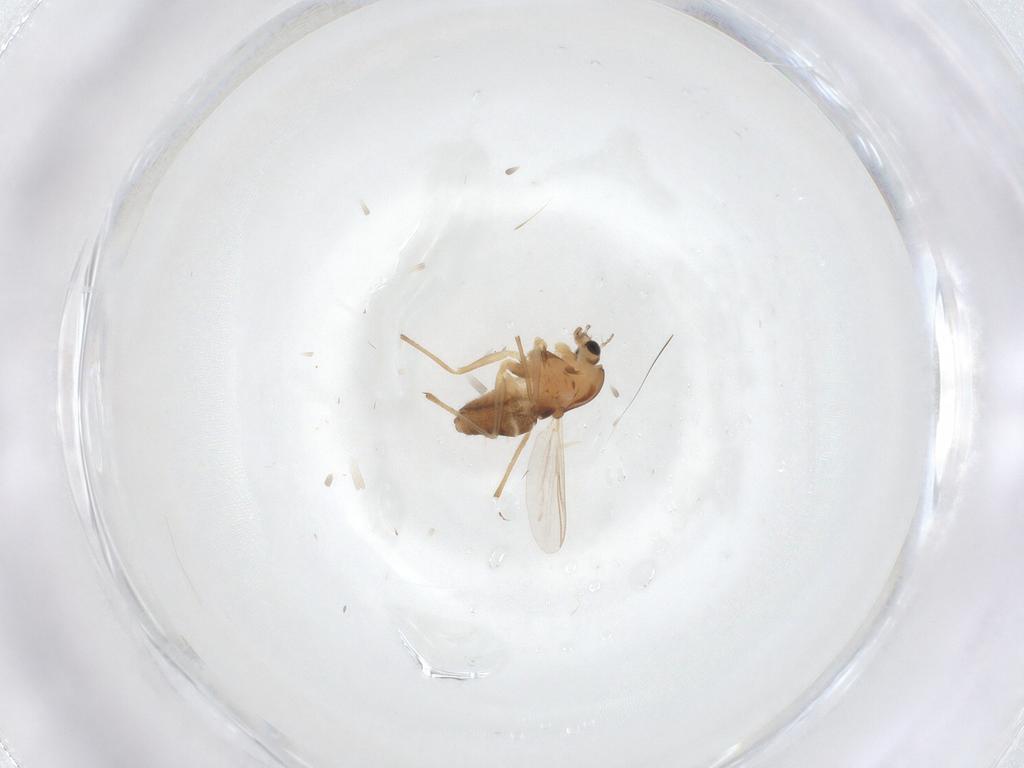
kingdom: Animalia
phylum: Arthropoda
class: Insecta
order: Diptera
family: Chironomidae
